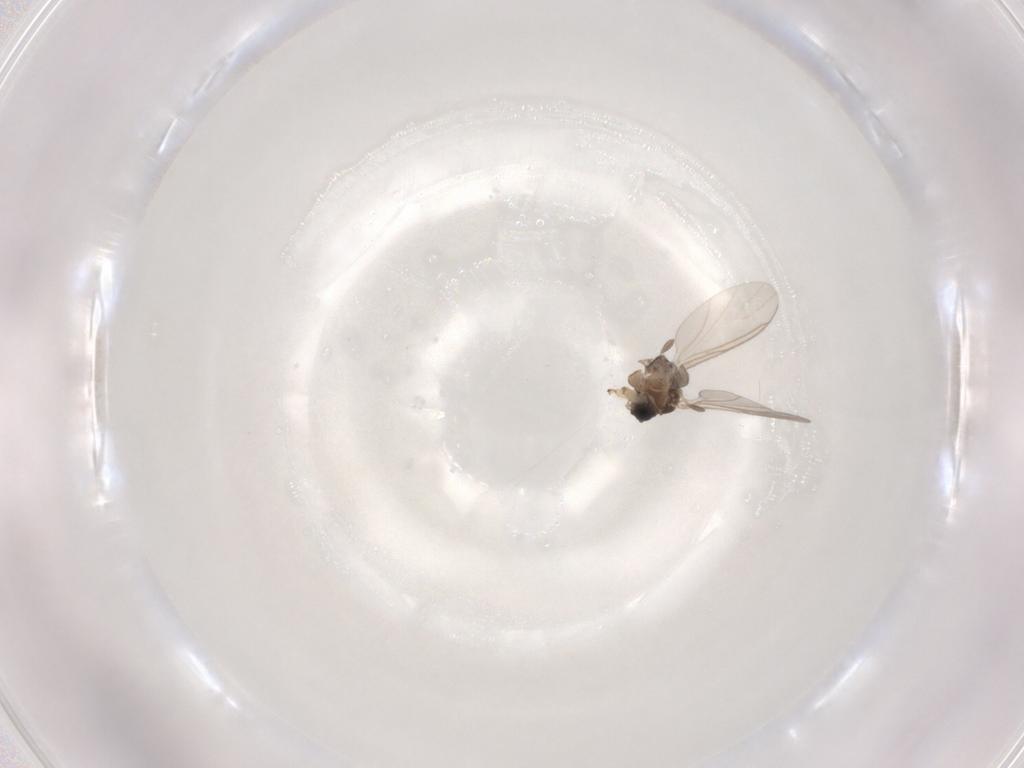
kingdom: Animalia
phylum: Arthropoda
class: Insecta
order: Diptera
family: Sciaridae
